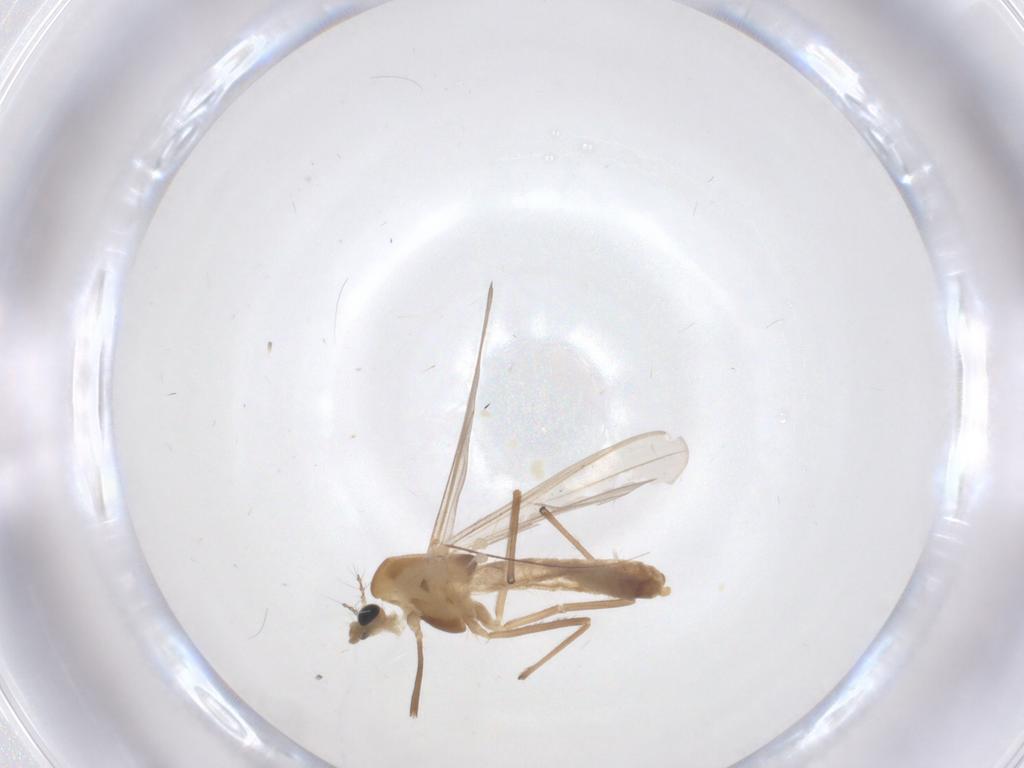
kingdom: Animalia
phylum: Arthropoda
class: Insecta
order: Diptera
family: Chironomidae
